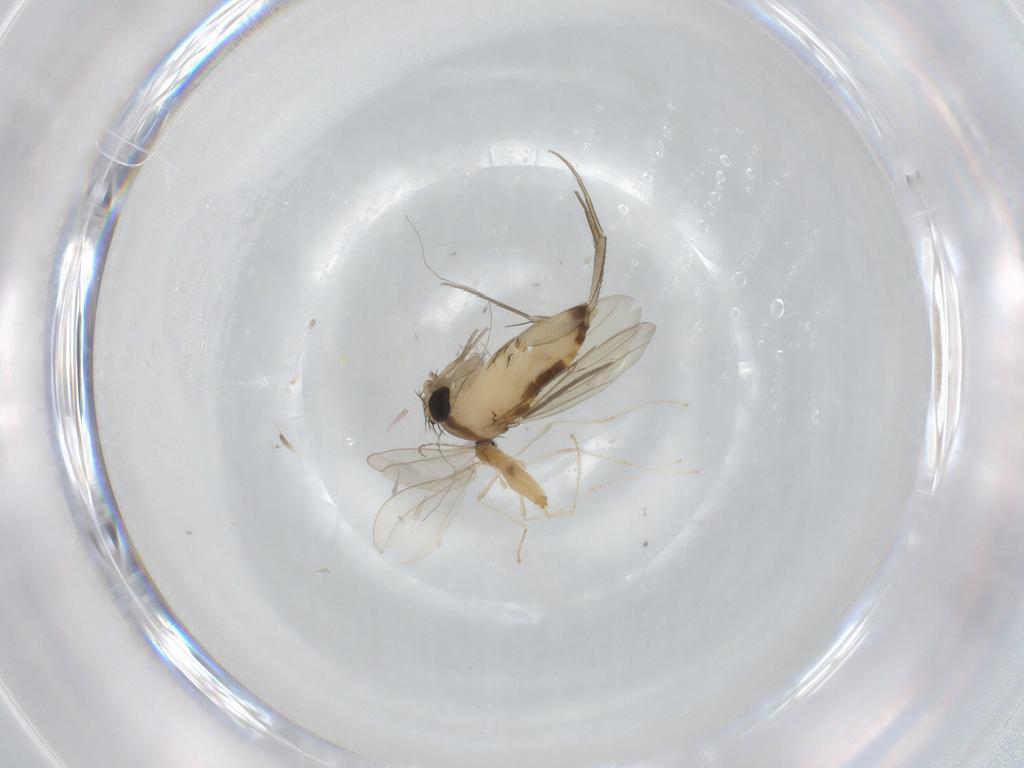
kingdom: Animalia
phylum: Arthropoda
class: Insecta
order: Diptera
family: Phoridae
